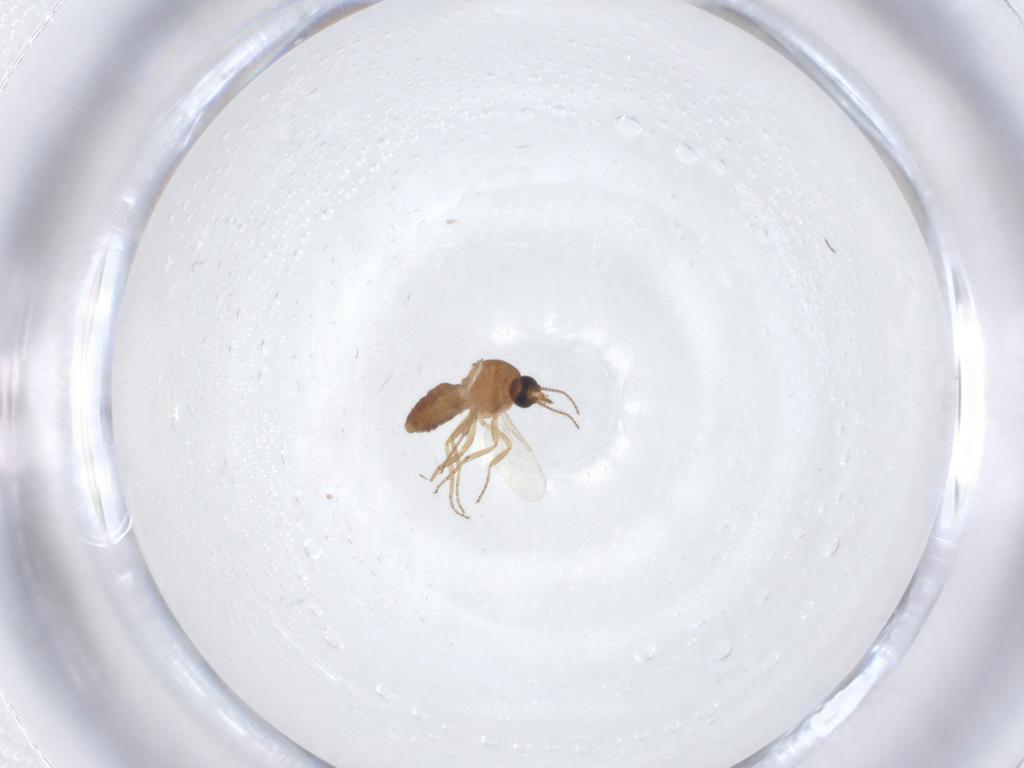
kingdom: Animalia
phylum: Arthropoda
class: Insecta
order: Diptera
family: Ceratopogonidae
